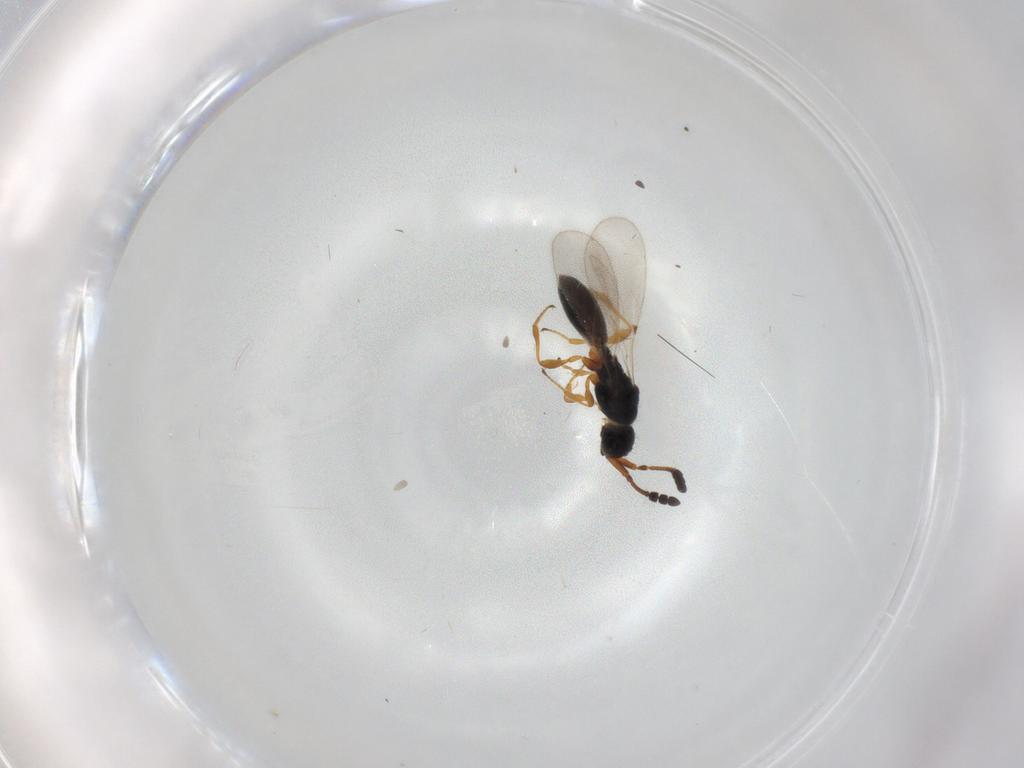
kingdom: Animalia
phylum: Arthropoda
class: Insecta
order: Hymenoptera
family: Diapriidae
